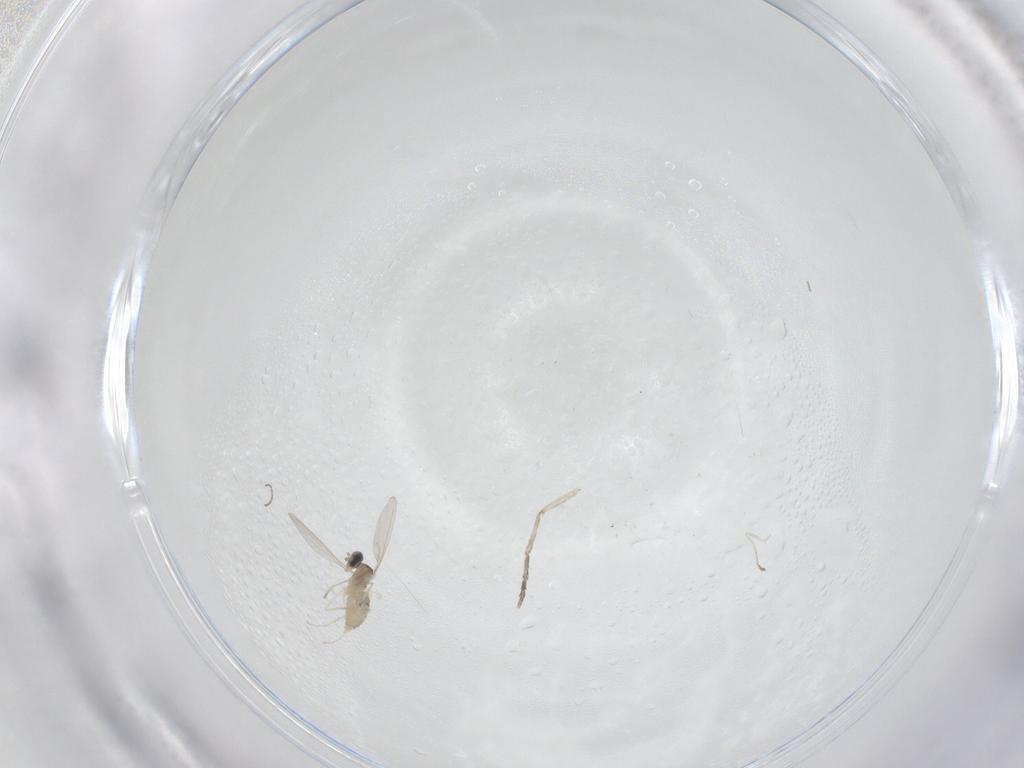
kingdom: Animalia
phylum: Arthropoda
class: Insecta
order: Diptera
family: Cecidomyiidae
